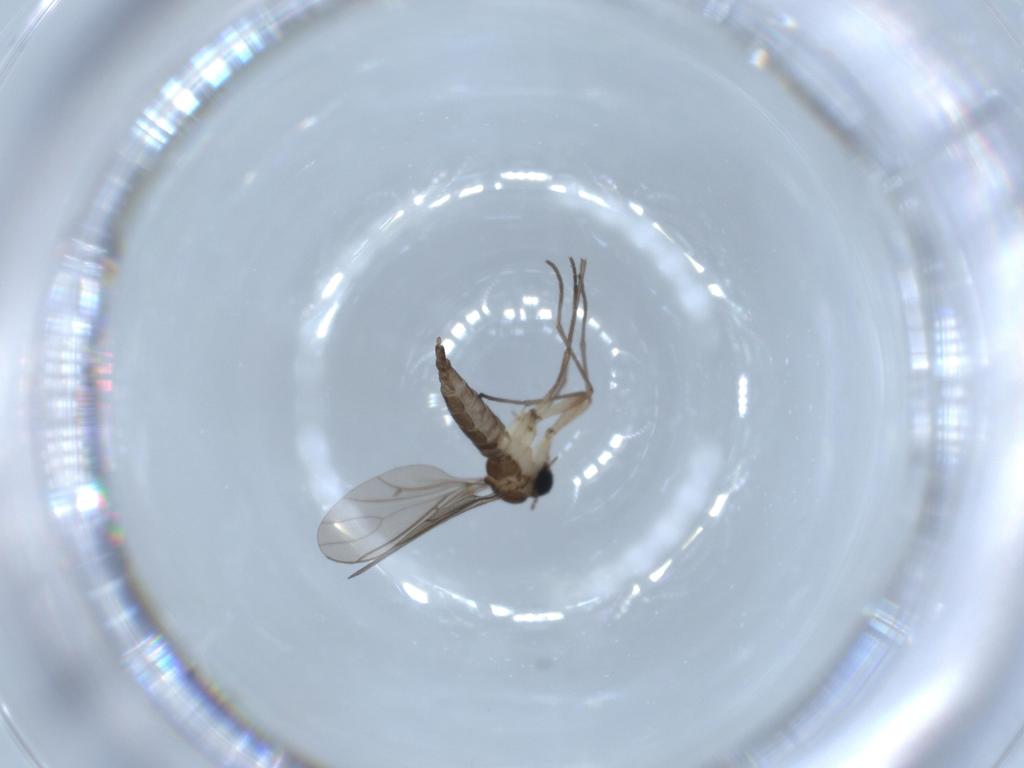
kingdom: Animalia
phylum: Arthropoda
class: Insecta
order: Diptera
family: Sciaridae
